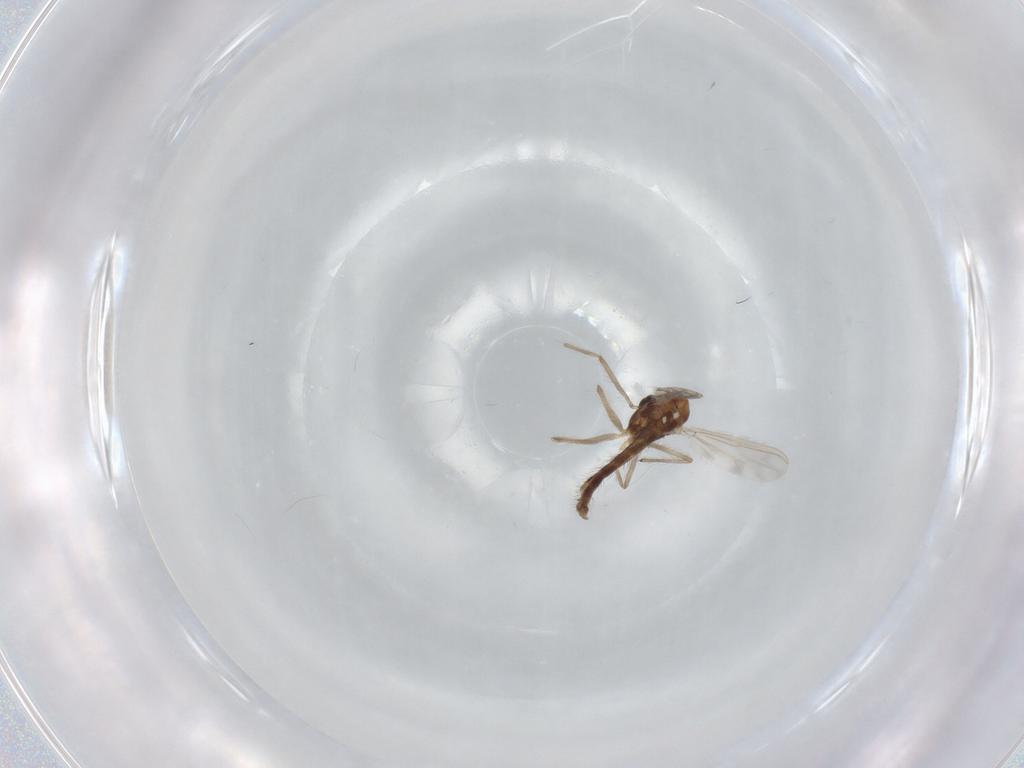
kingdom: Animalia
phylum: Arthropoda
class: Insecta
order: Diptera
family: Chironomidae
